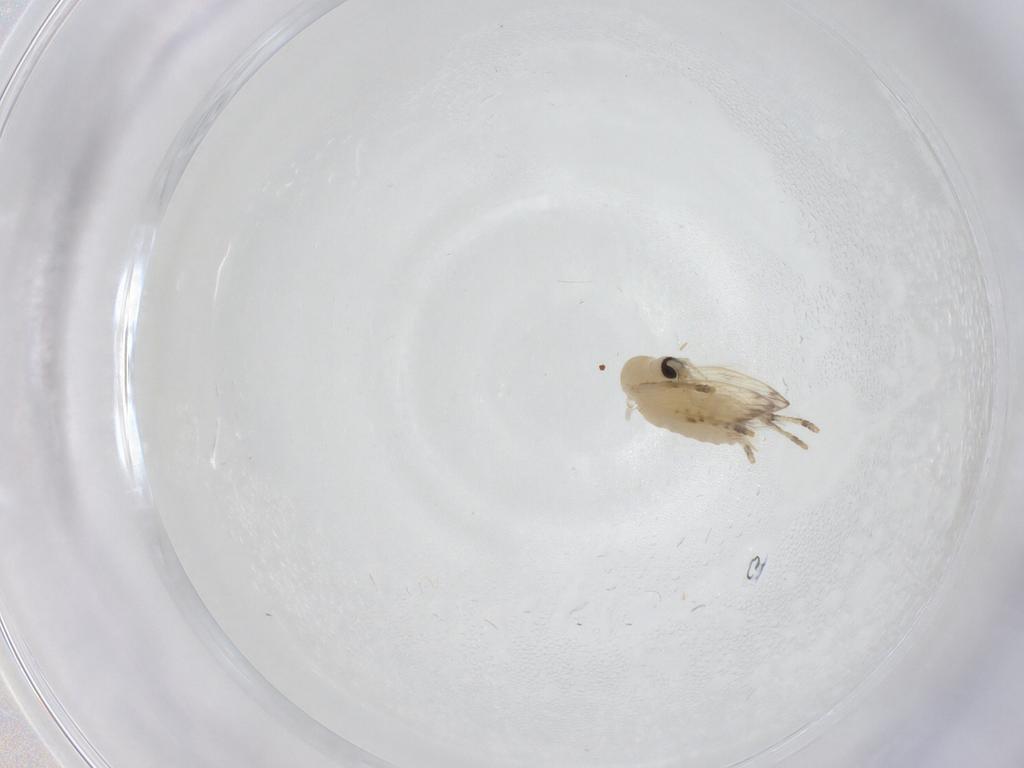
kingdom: Animalia
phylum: Arthropoda
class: Insecta
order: Diptera
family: Psychodidae
